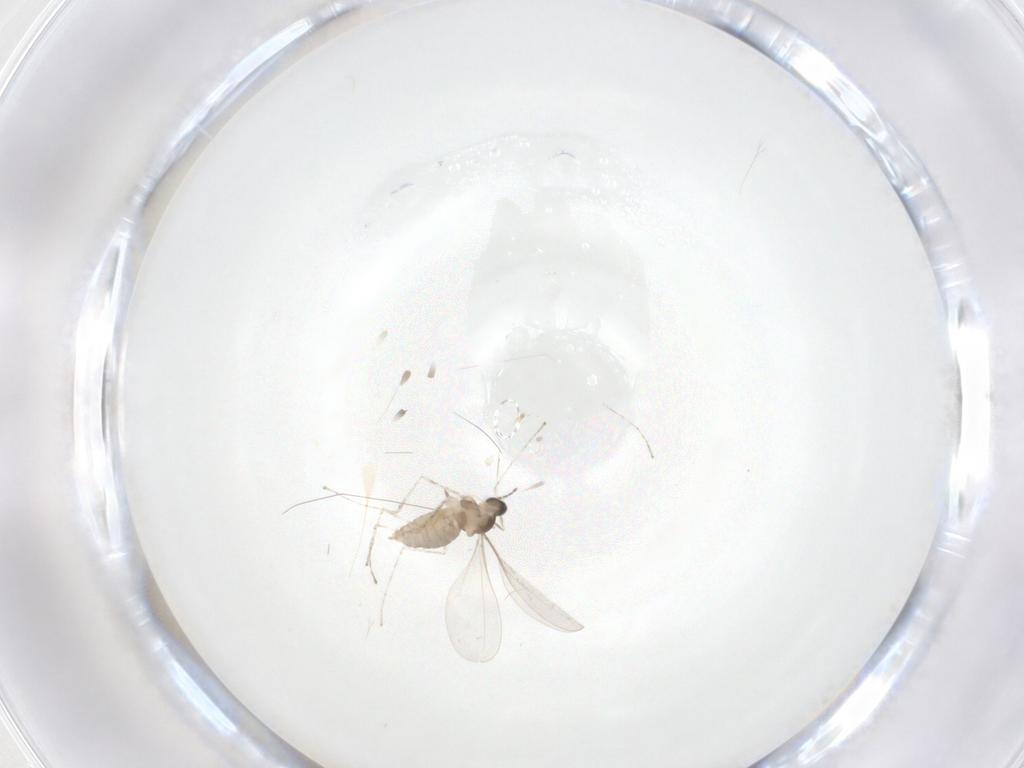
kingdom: Animalia
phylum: Arthropoda
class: Insecta
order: Diptera
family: Cecidomyiidae
